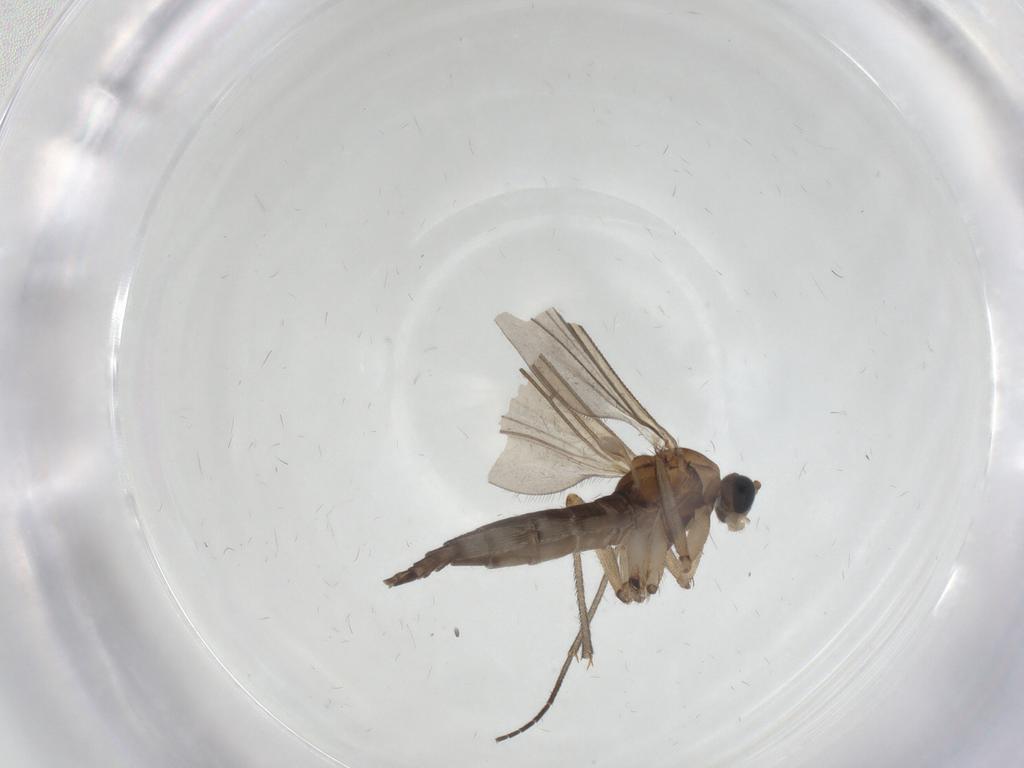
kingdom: Animalia
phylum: Arthropoda
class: Insecta
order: Diptera
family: Sciaridae
